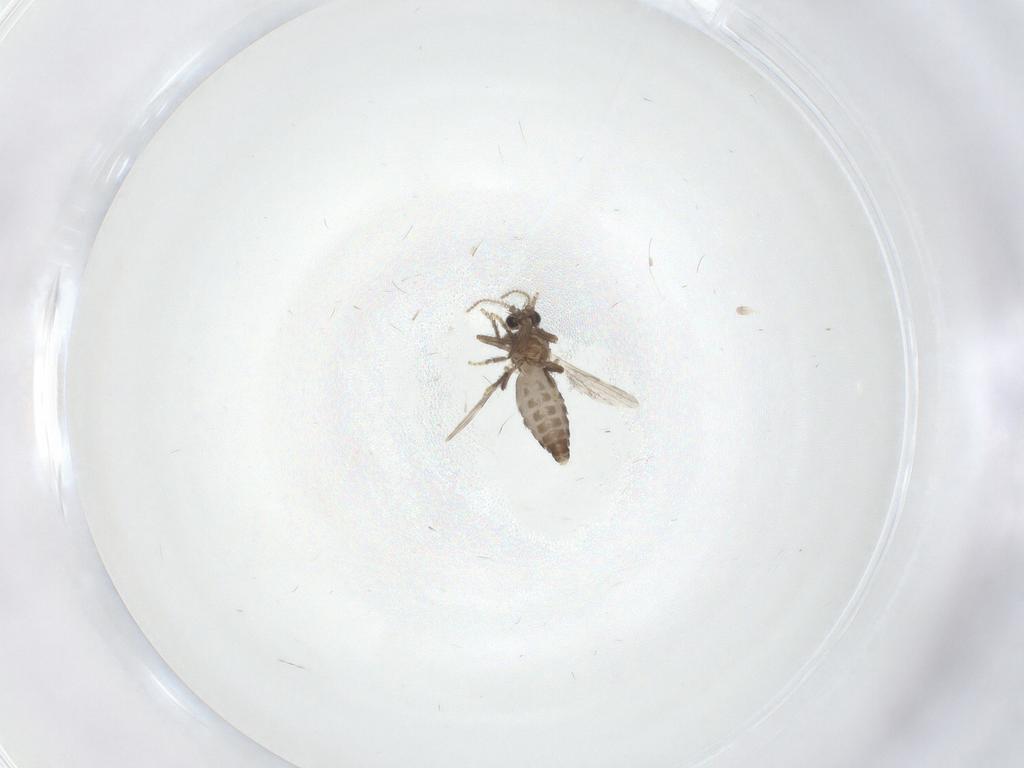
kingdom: Animalia
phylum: Arthropoda
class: Insecta
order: Diptera
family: Ceratopogonidae
